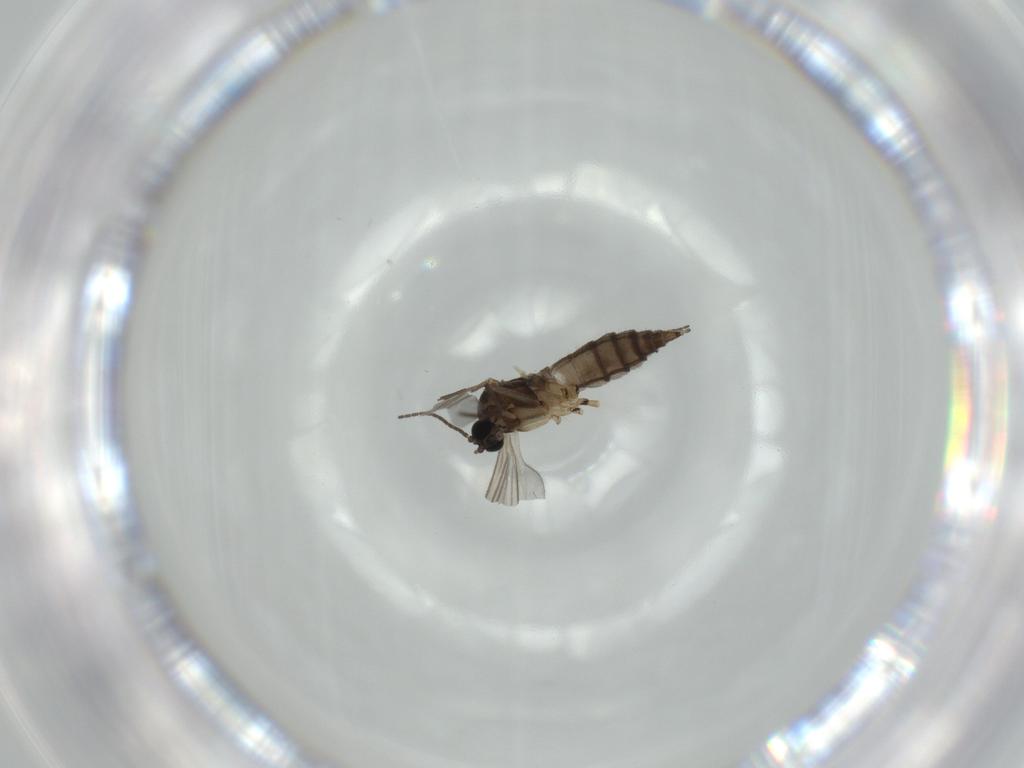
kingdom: Animalia
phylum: Arthropoda
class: Insecta
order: Diptera
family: Sciaridae
